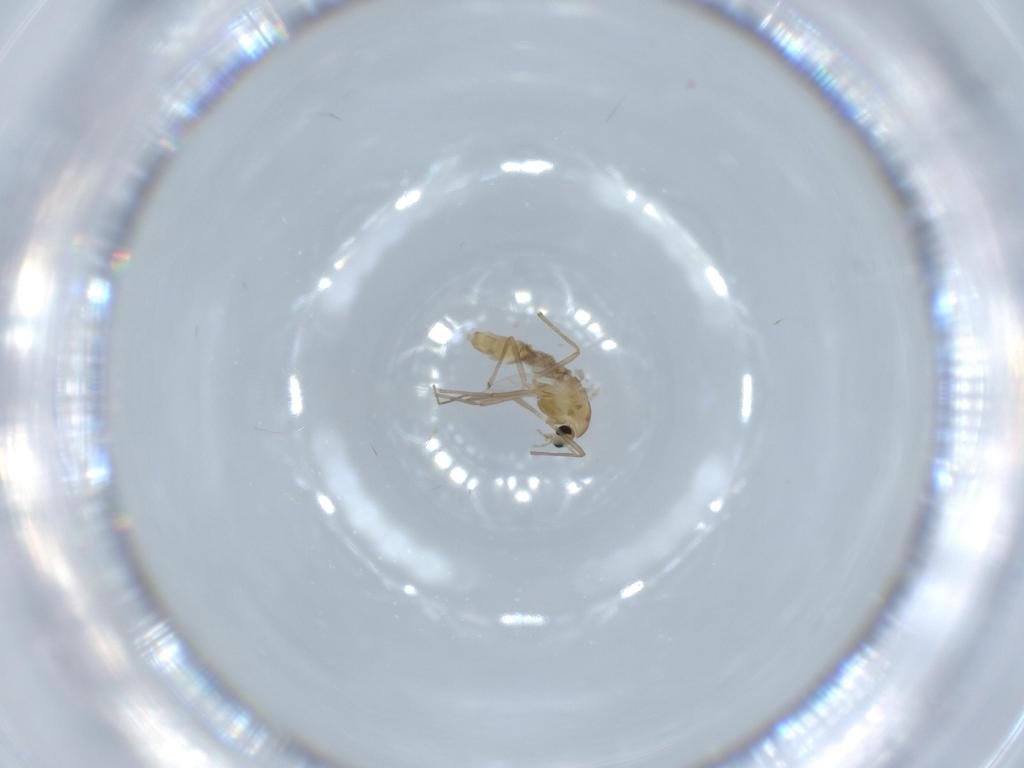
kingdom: Animalia
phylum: Arthropoda
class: Insecta
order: Diptera
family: Chironomidae
